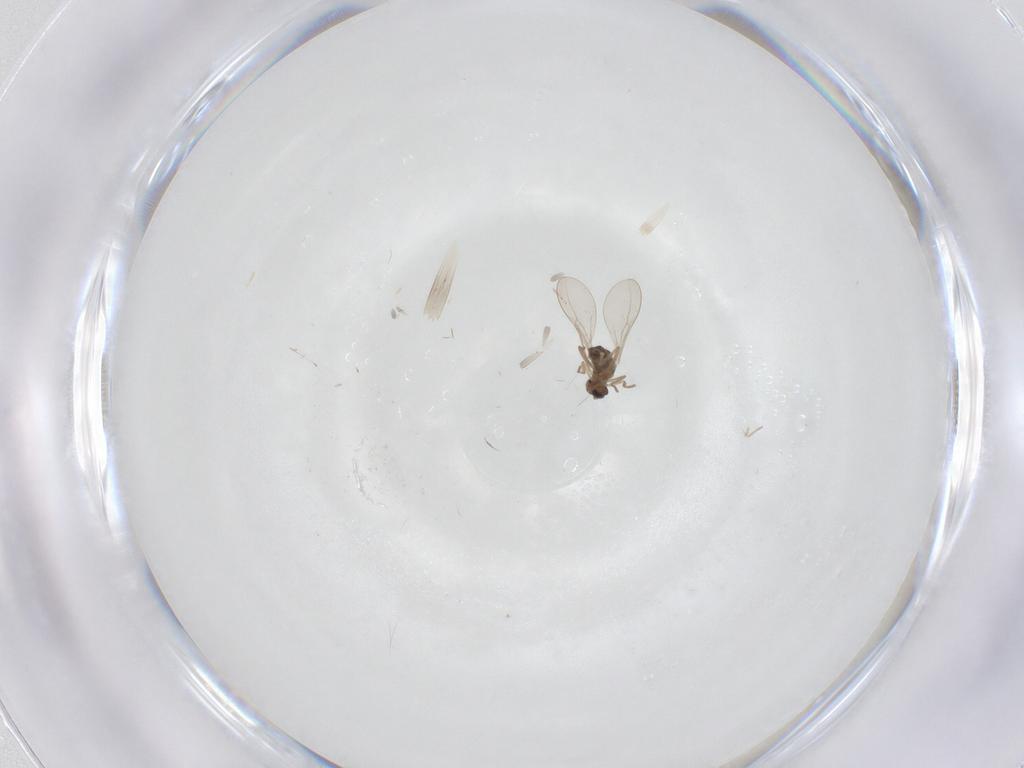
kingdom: Animalia
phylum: Arthropoda
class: Insecta
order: Diptera
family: Cecidomyiidae
